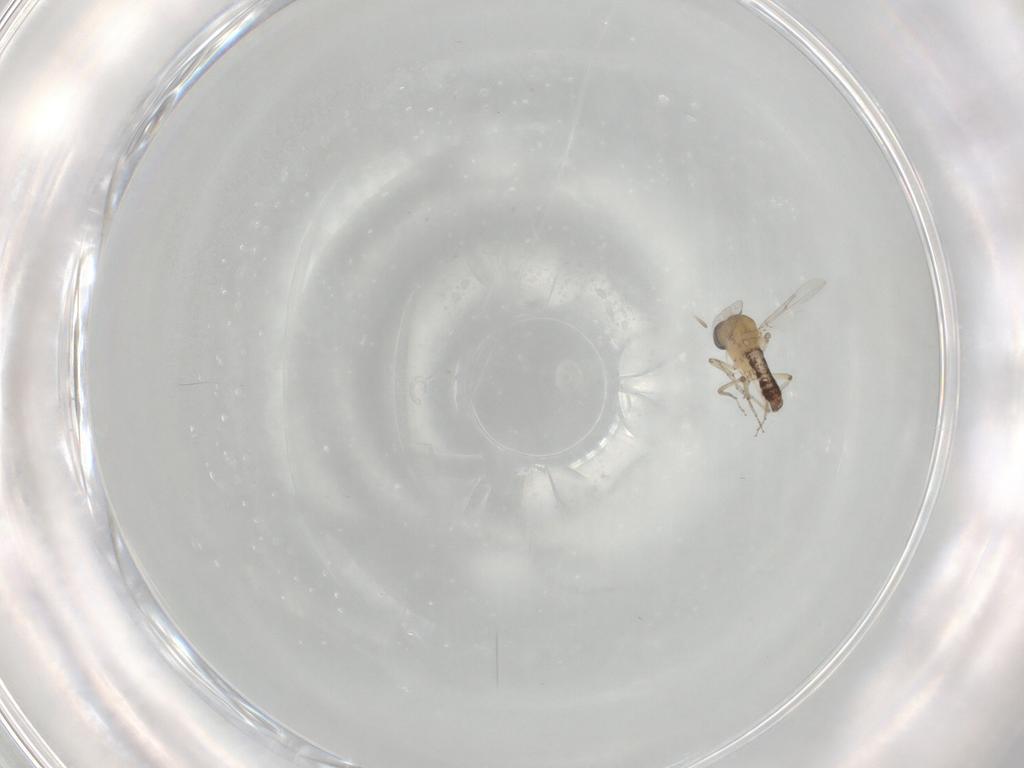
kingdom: Animalia
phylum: Arthropoda
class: Insecta
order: Diptera
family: Ceratopogonidae
